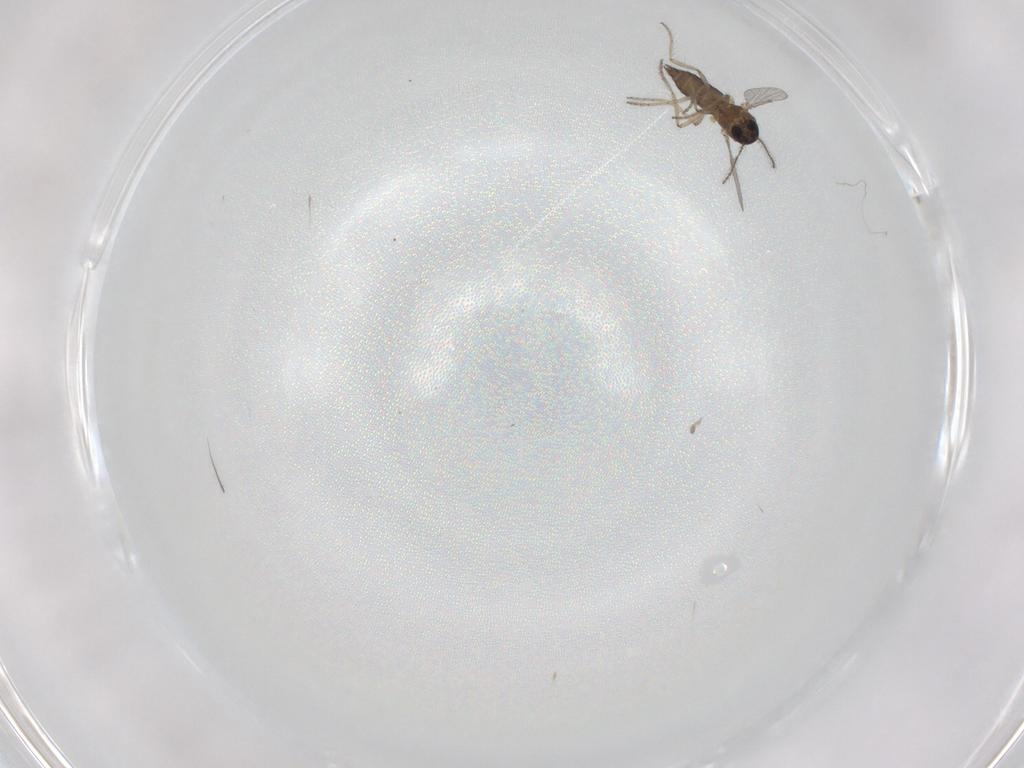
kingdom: Animalia
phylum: Arthropoda
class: Insecta
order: Diptera
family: Ceratopogonidae
